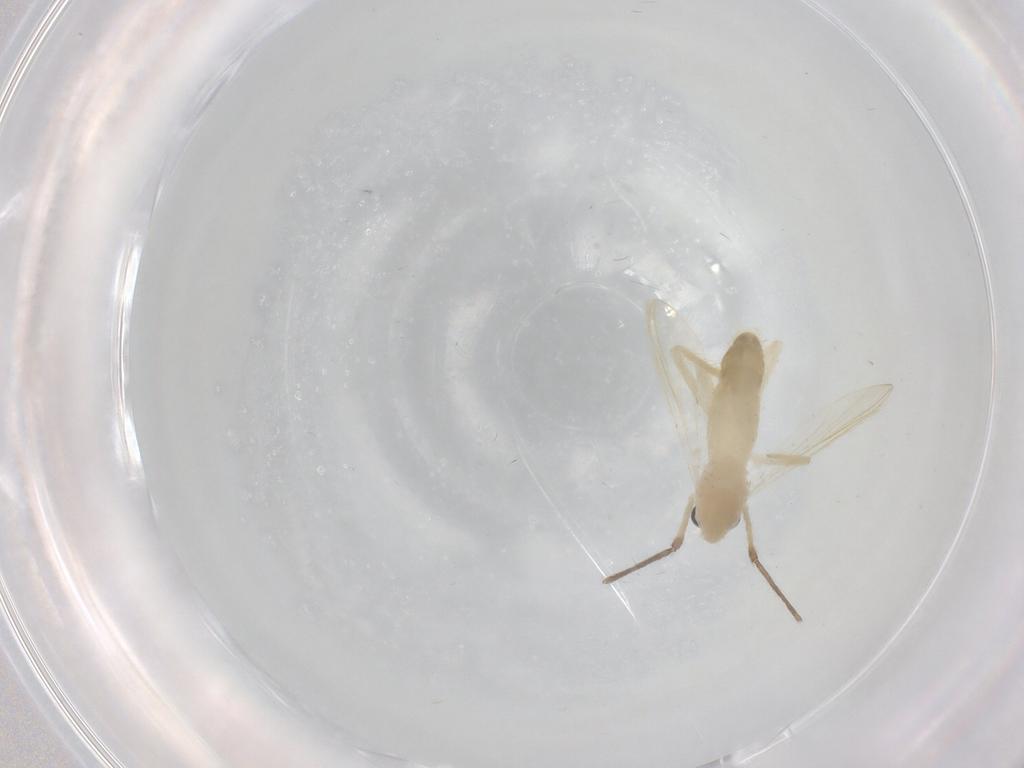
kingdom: Animalia
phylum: Arthropoda
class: Insecta
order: Diptera
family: Chironomidae
